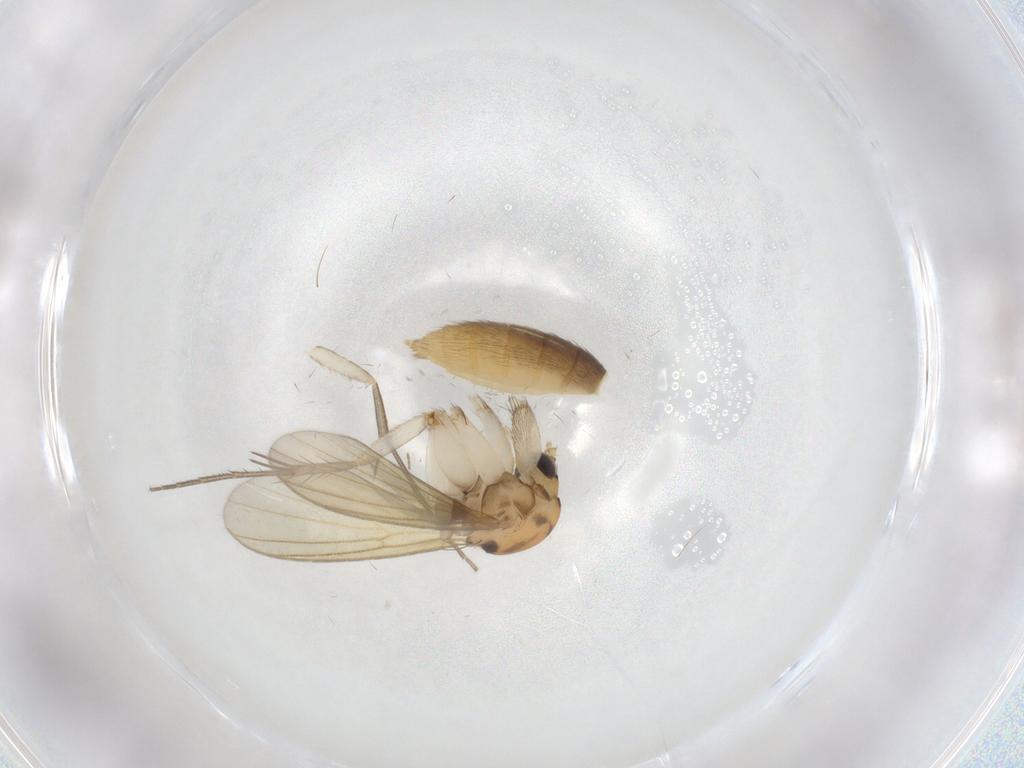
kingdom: Animalia
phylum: Arthropoda
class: Insecta
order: Diptera
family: Mycetophilidae
